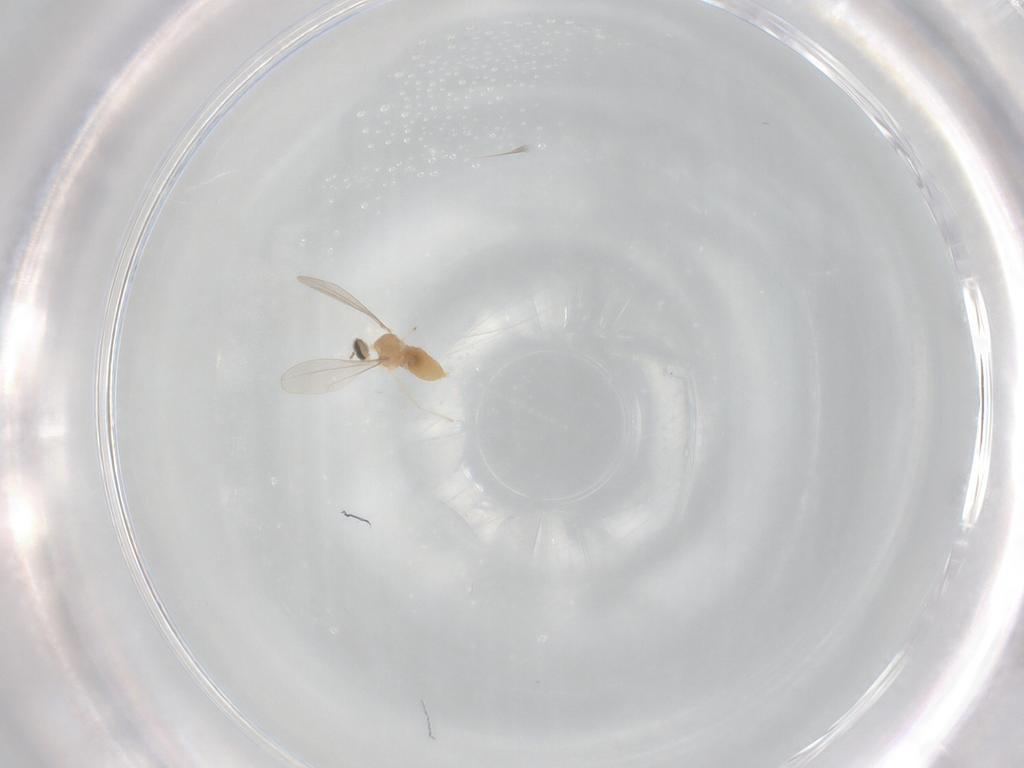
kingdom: Animalia
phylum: Arthropoda
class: Insecta
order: Diptera
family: Cecidomyiidae
